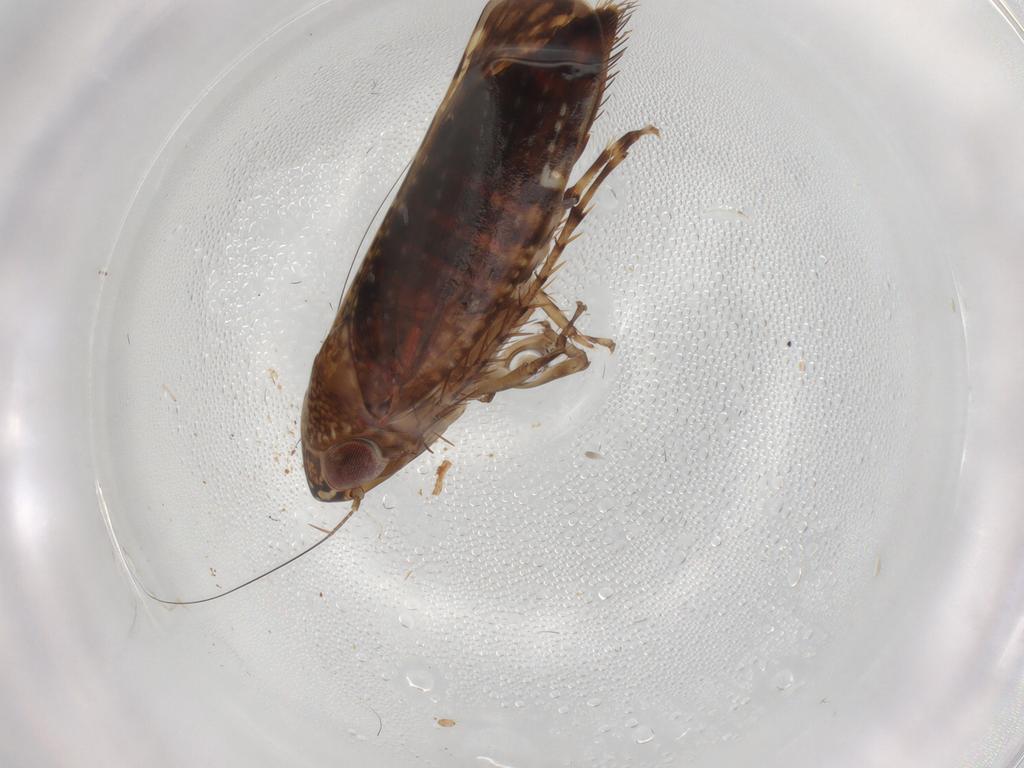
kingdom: Animalia
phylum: Arthropoda
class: Insecta
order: Hemiptera
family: Cicadellidae
